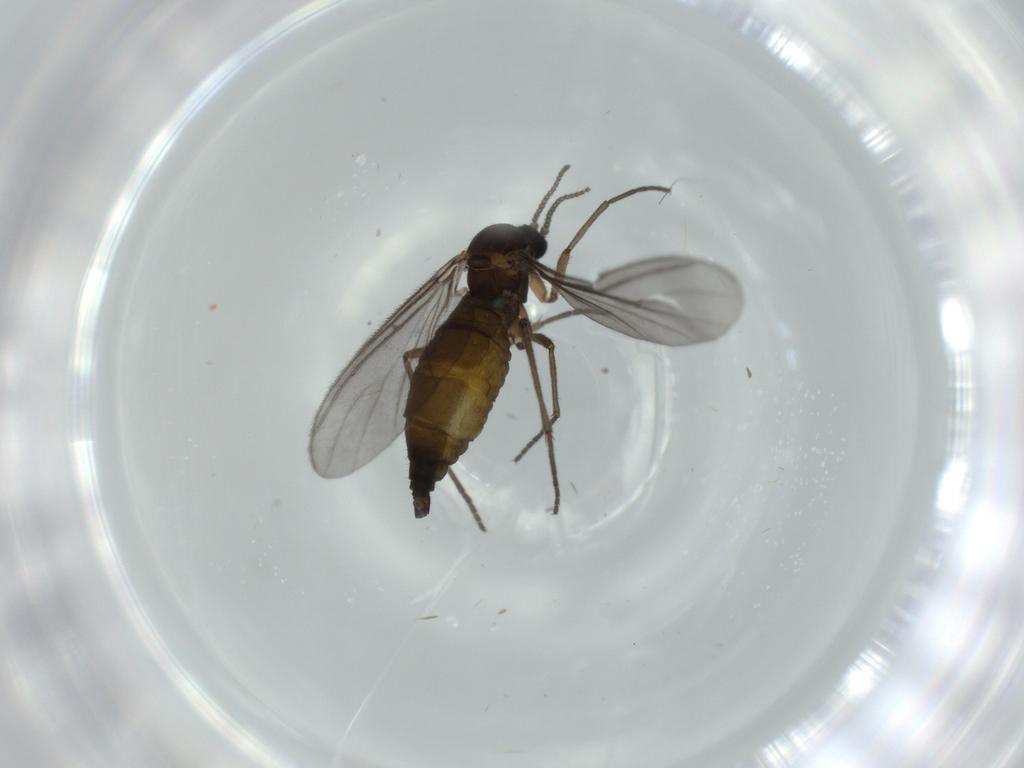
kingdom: Animalia
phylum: Arthropoda
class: Insecta
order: Diptera
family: Sciaridae
